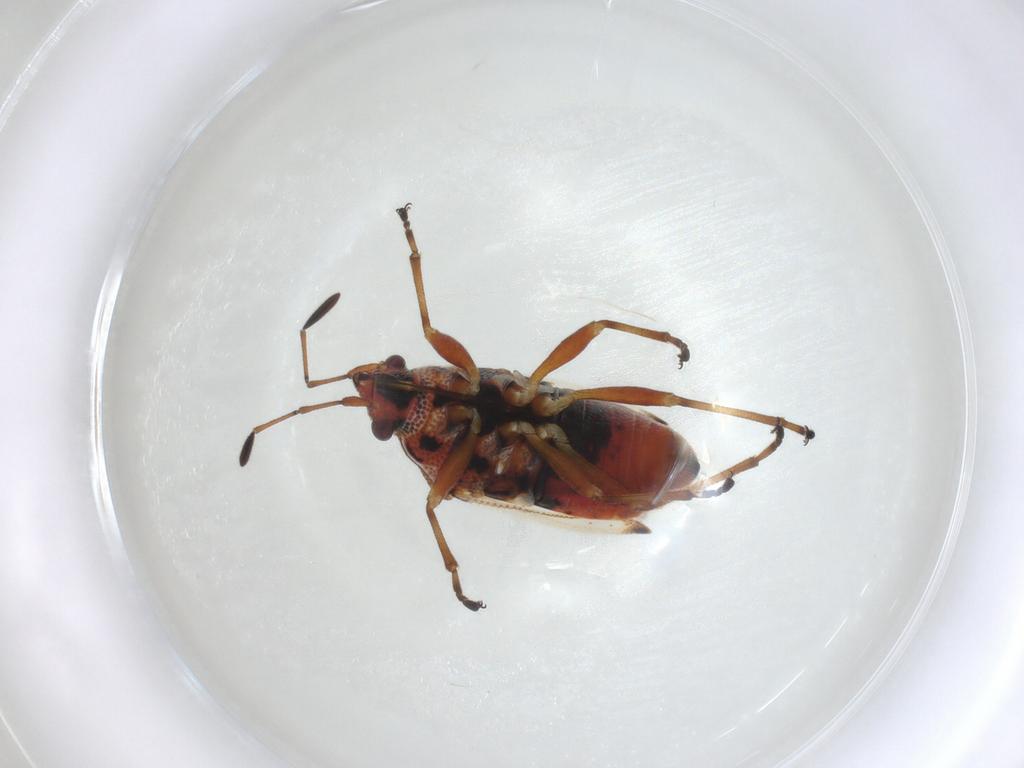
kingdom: Animalia
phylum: Arthropoda
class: Insecta
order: Hemiptera
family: Lygaeidae
